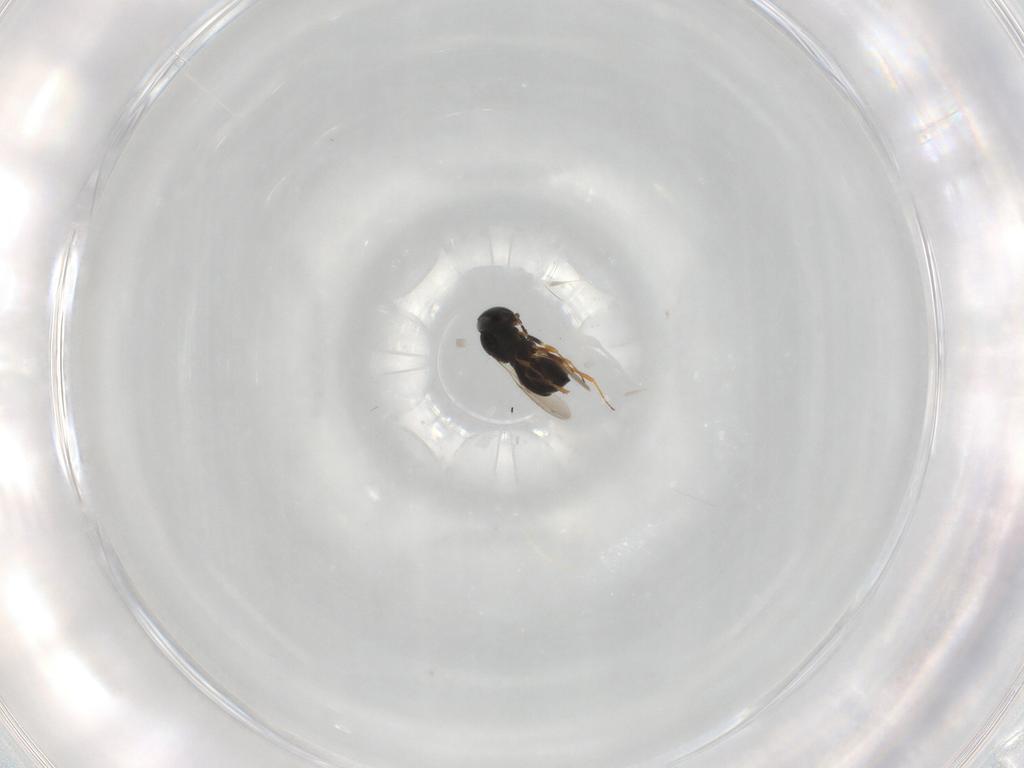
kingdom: Animalia
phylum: Arthropoda
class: Insecta
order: Hymenoptera
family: Scelionidae
